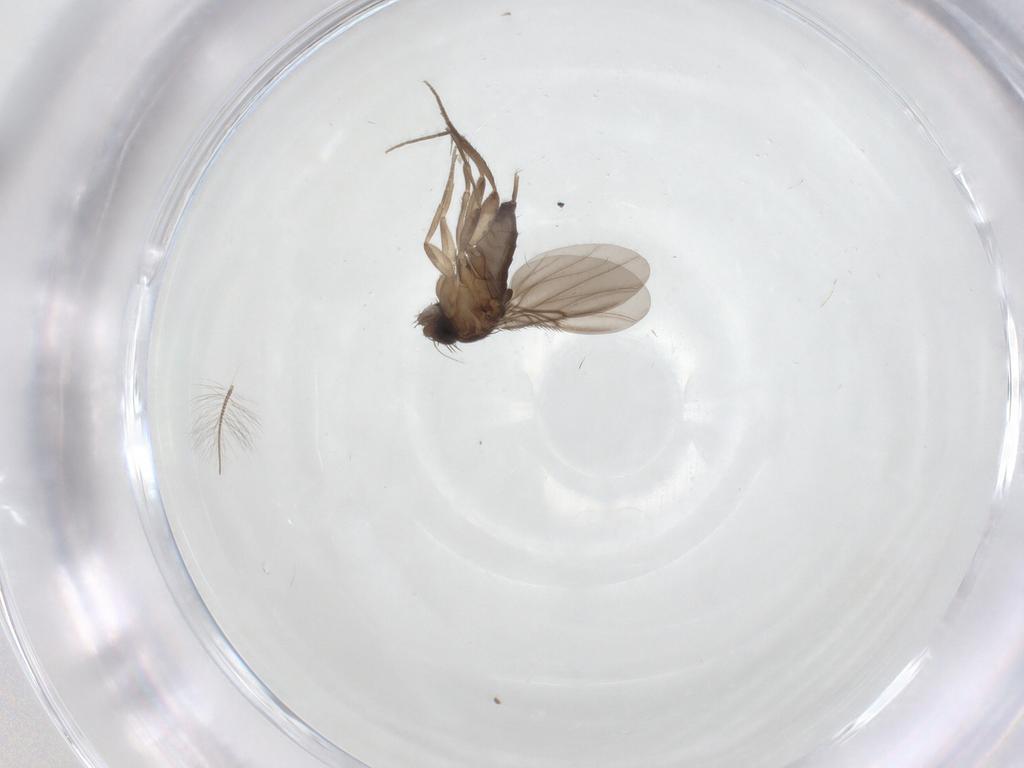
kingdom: Animalia
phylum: Arthropoda
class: Insecta
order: Diptera
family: Phoridae
